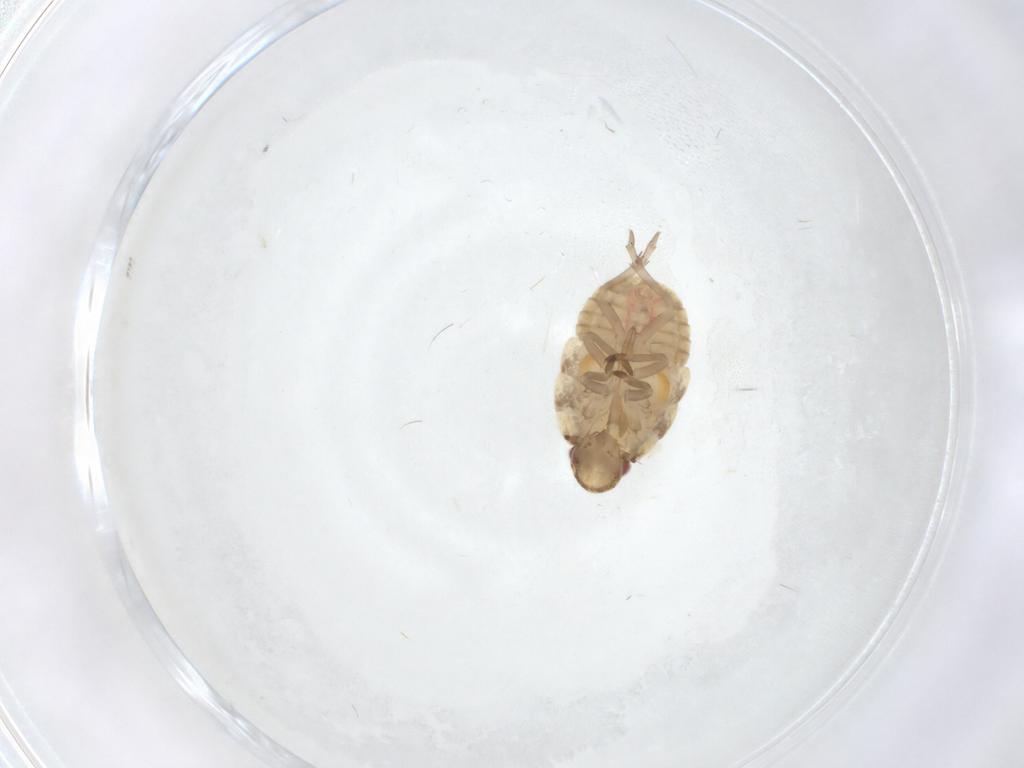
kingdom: Animalia
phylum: Arthropoda
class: Insecta
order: Hemiptera
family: Flatidae
